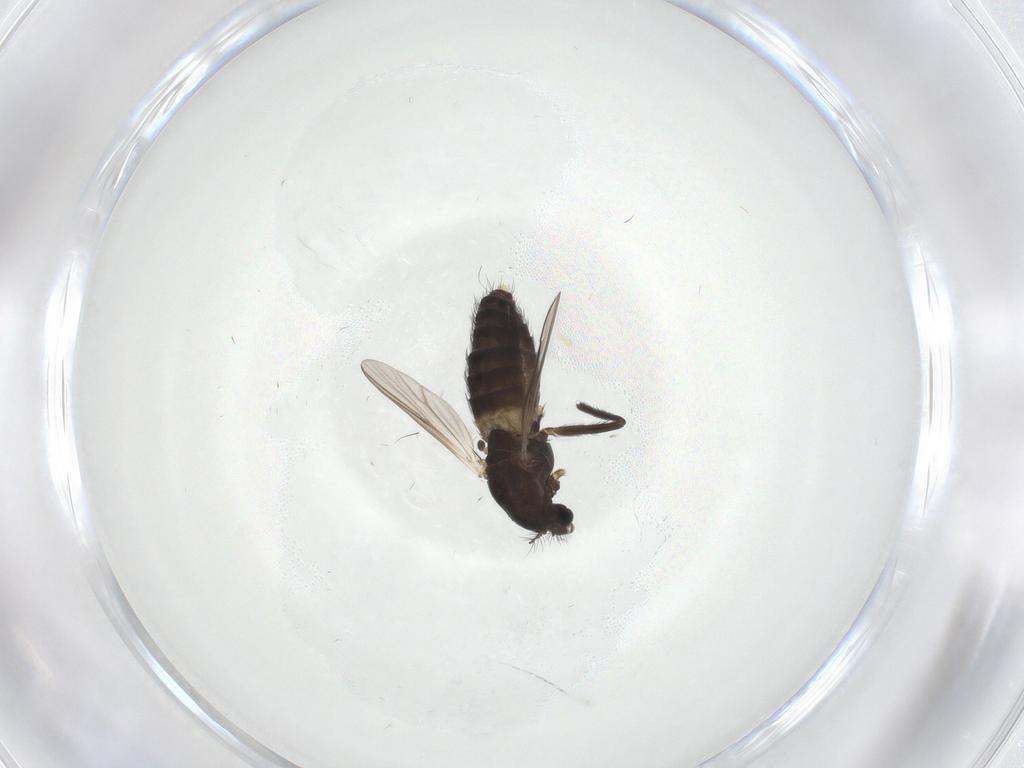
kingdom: Animalia
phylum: Arthropoda
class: Insecta
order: Diptera
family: Chironomidae
